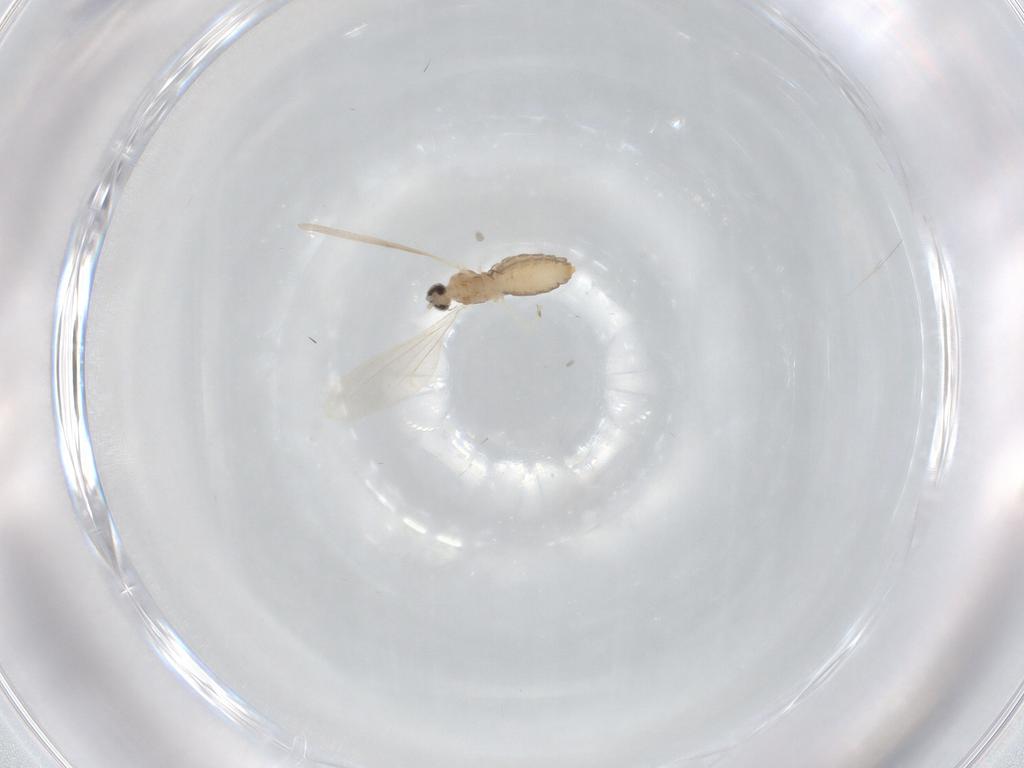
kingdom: Animalia
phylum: Arthropoda
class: Insecta
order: Diptera
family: Cecidomyiidae
